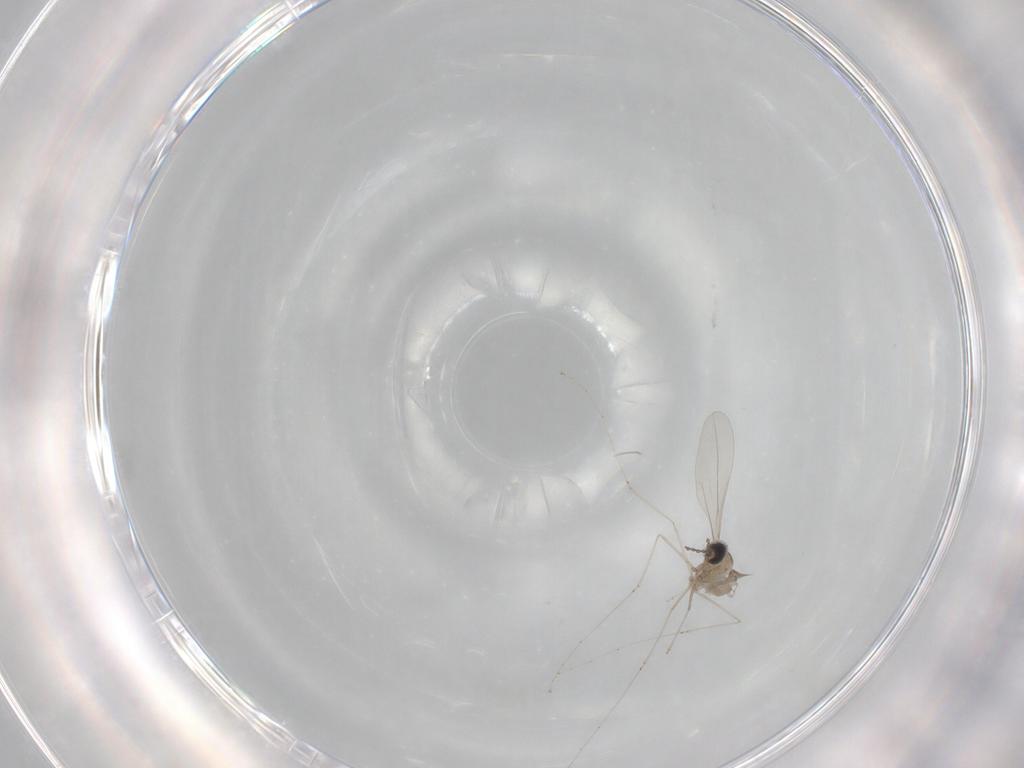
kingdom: Animalia
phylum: Arthropoda
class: Insecta
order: Diptera
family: Cecidomyiidae
